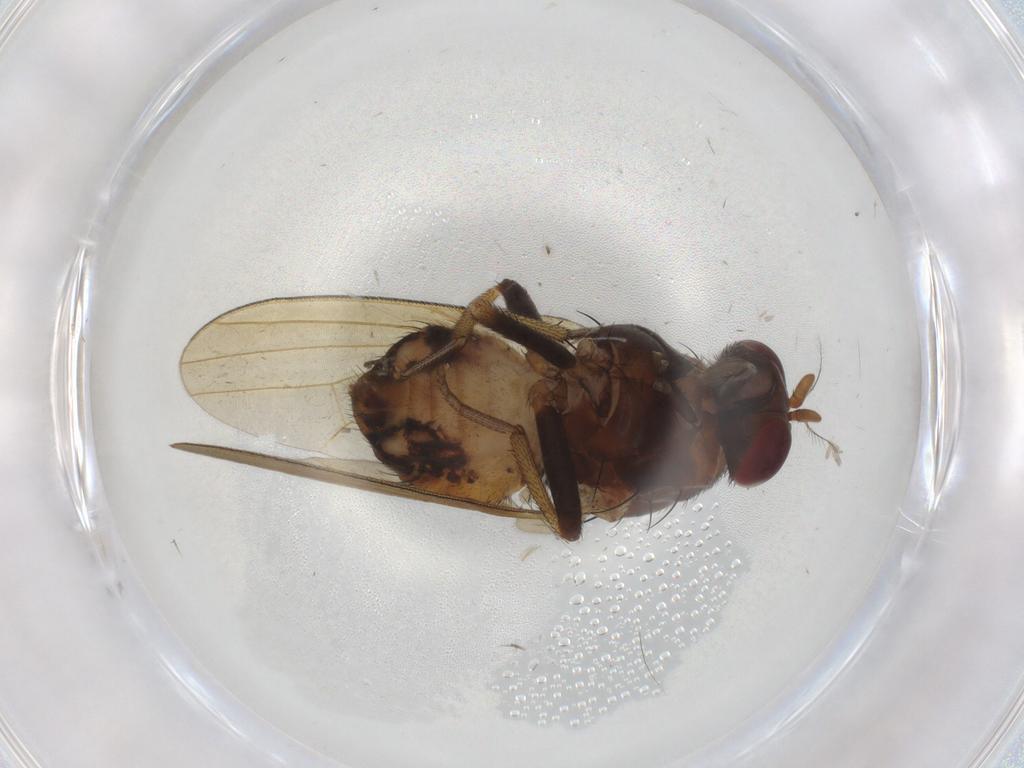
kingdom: Animalia
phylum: Arthropoda
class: Insecta
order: Diptera
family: Lauxaniidae
